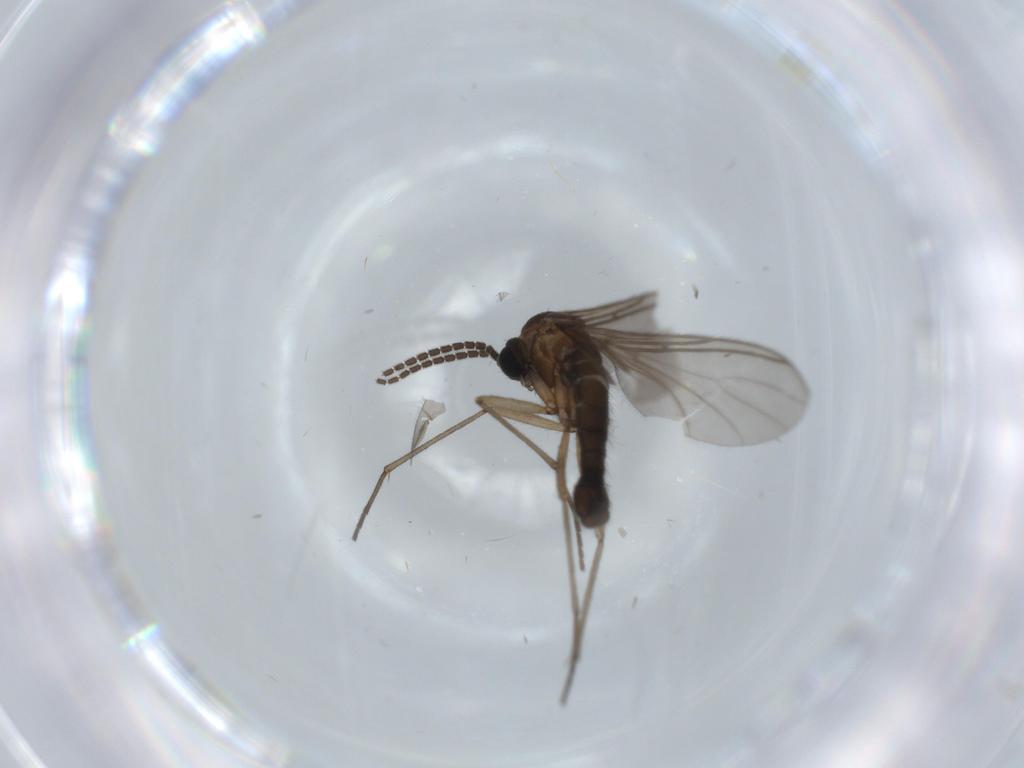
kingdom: Animalia
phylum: Arthropoda
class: Insecta
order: Diptera
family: Sciaridae
